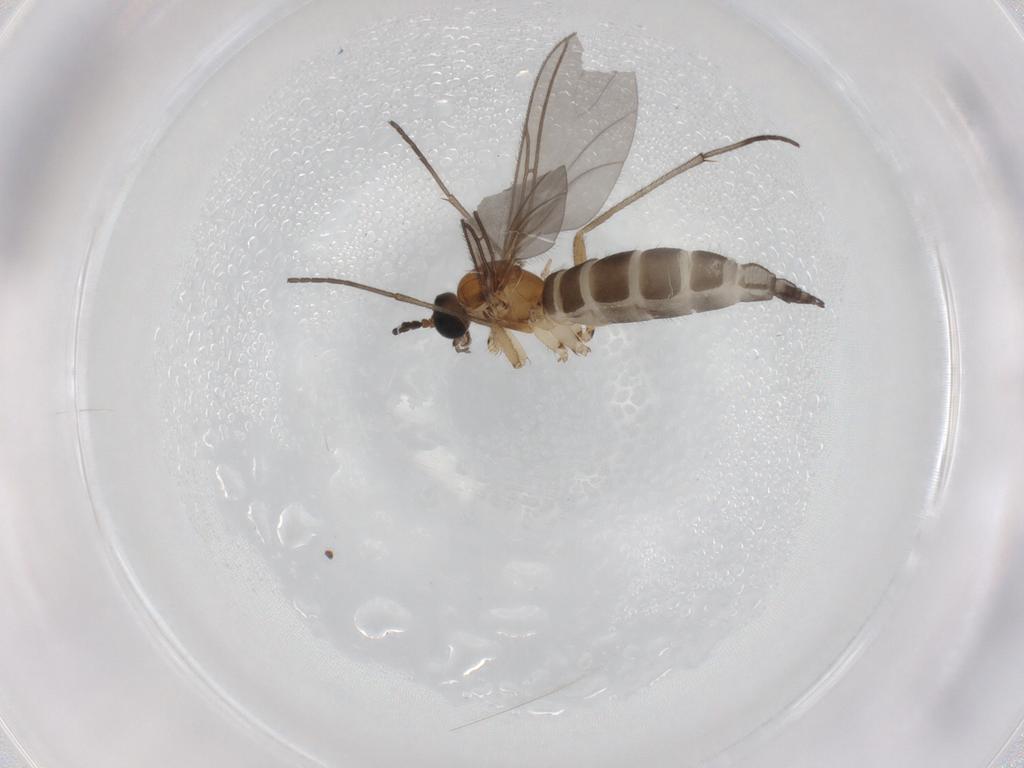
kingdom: Animalia
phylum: Arthropoda
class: Insecta
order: Diptera
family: Sciaridae
